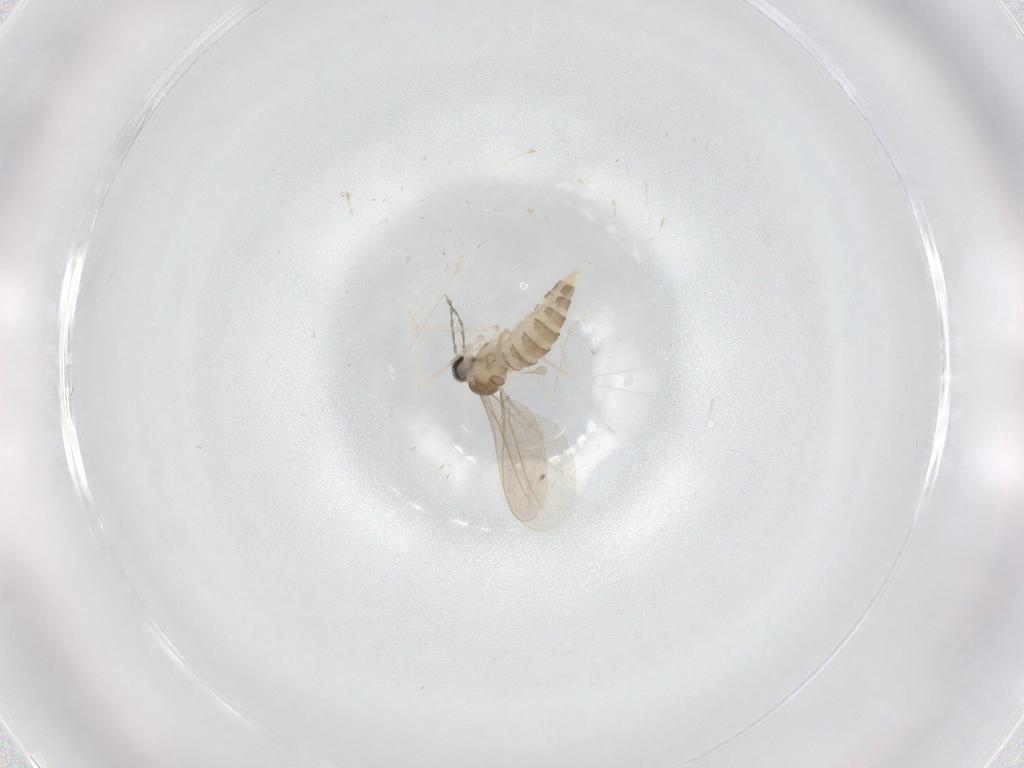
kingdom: Animalia
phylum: Arthropoda
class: Insecta
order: Diptera
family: Cecidomyiidae
